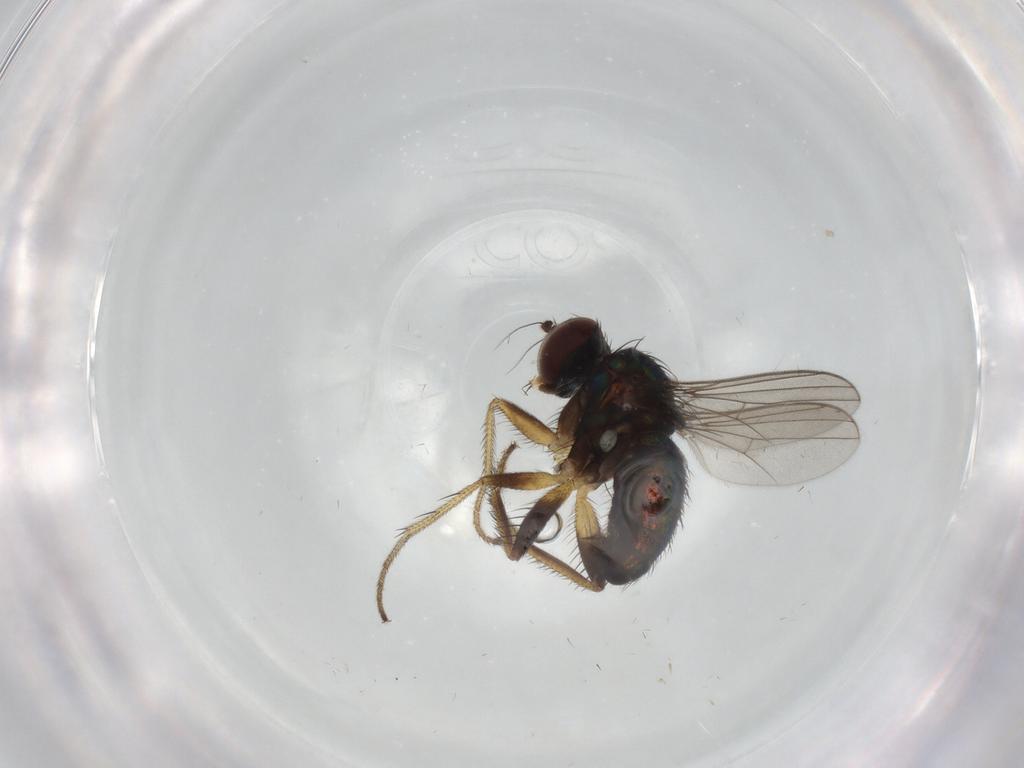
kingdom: Animalia
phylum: Arthropoda
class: Insecta
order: Diptera
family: Dolichopodidae
